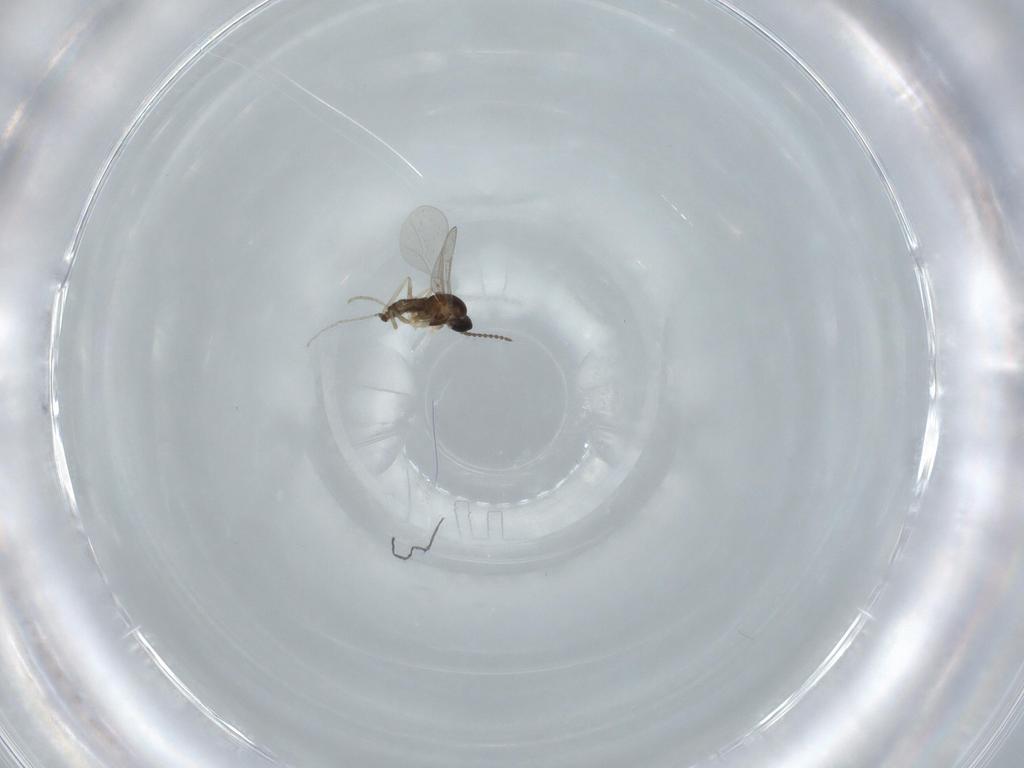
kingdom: Animalia
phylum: Arthropoda
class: Insecta
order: Diptera
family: Cecidomyiidae
